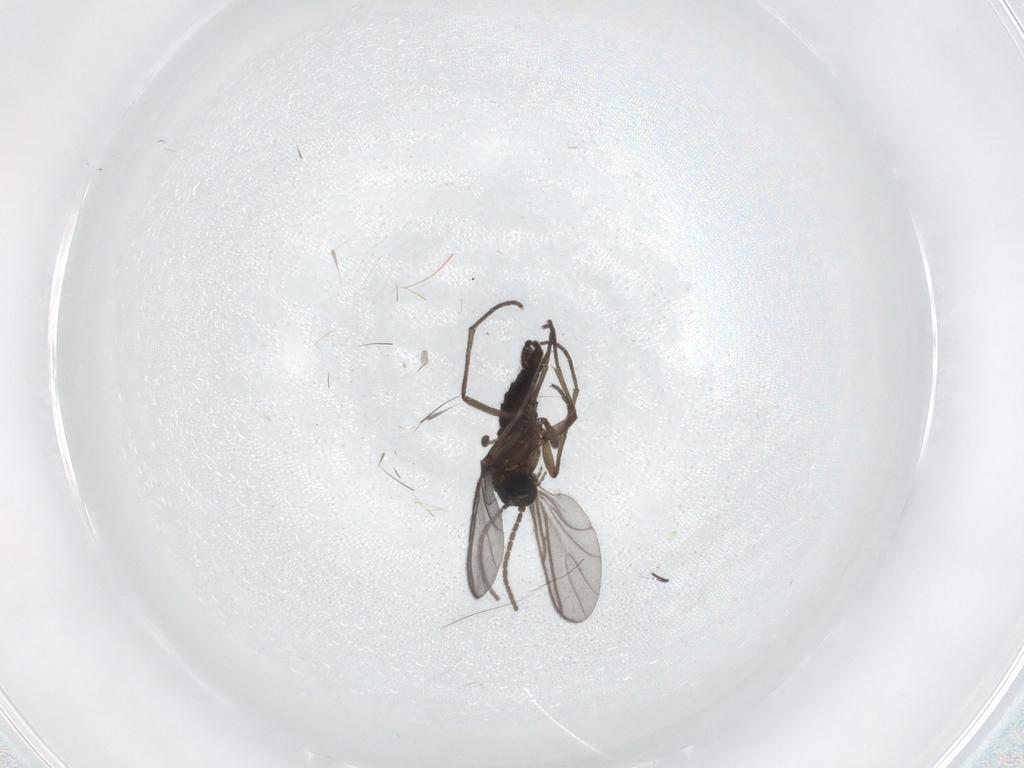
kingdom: Animalia
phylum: Arthropoda
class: Insecta
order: Diptera
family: Sciaridae
